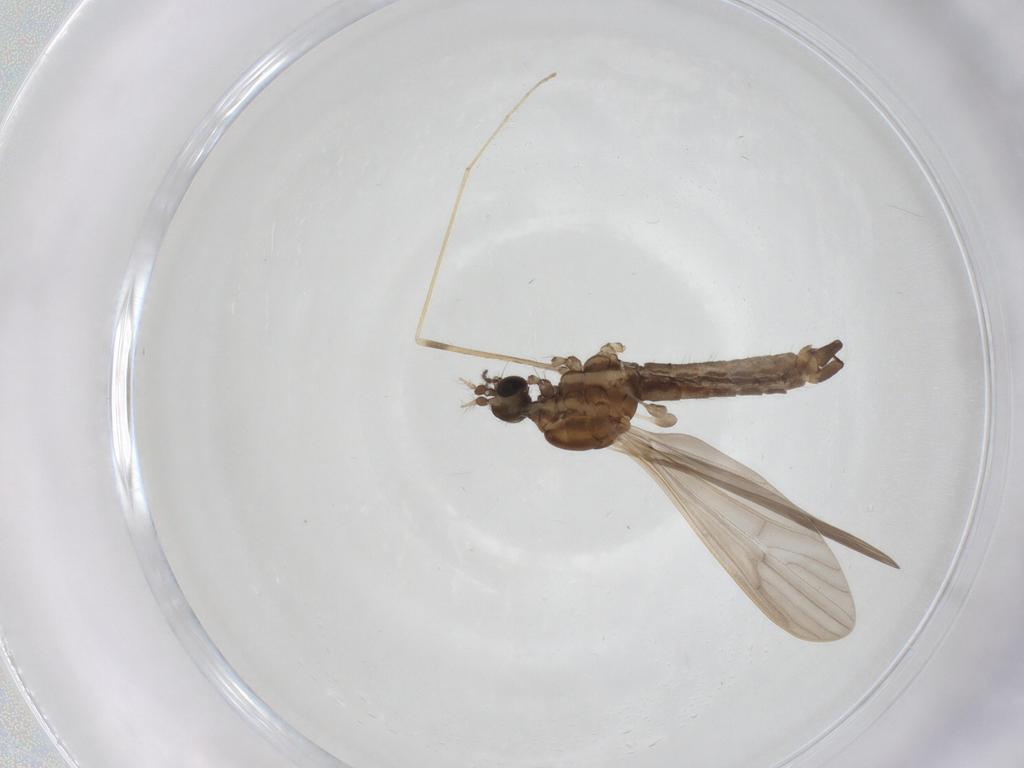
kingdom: Animalia
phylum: Arthropoda
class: Insecta
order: Diptera
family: Limoniidae
